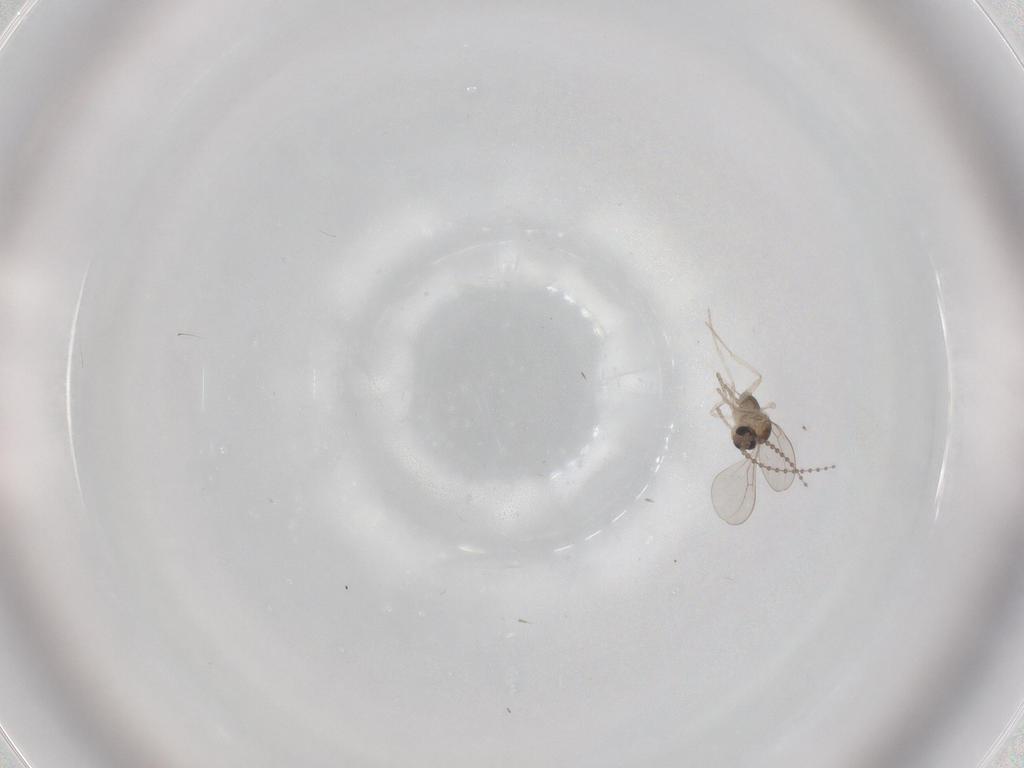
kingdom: Animalia
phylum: Arthropoda
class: Insecta
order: Diptera
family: Cecidomyiidae
